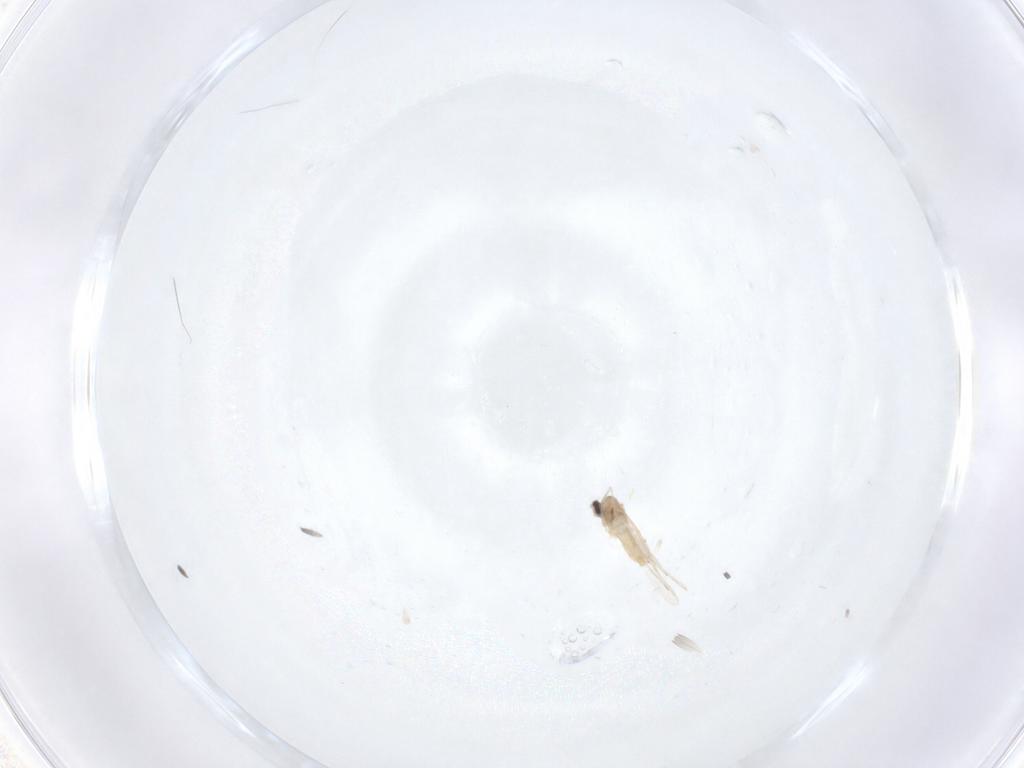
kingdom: Animalia
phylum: Arthropoda
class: Insecta
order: Diptera
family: Cecidomyiidae
